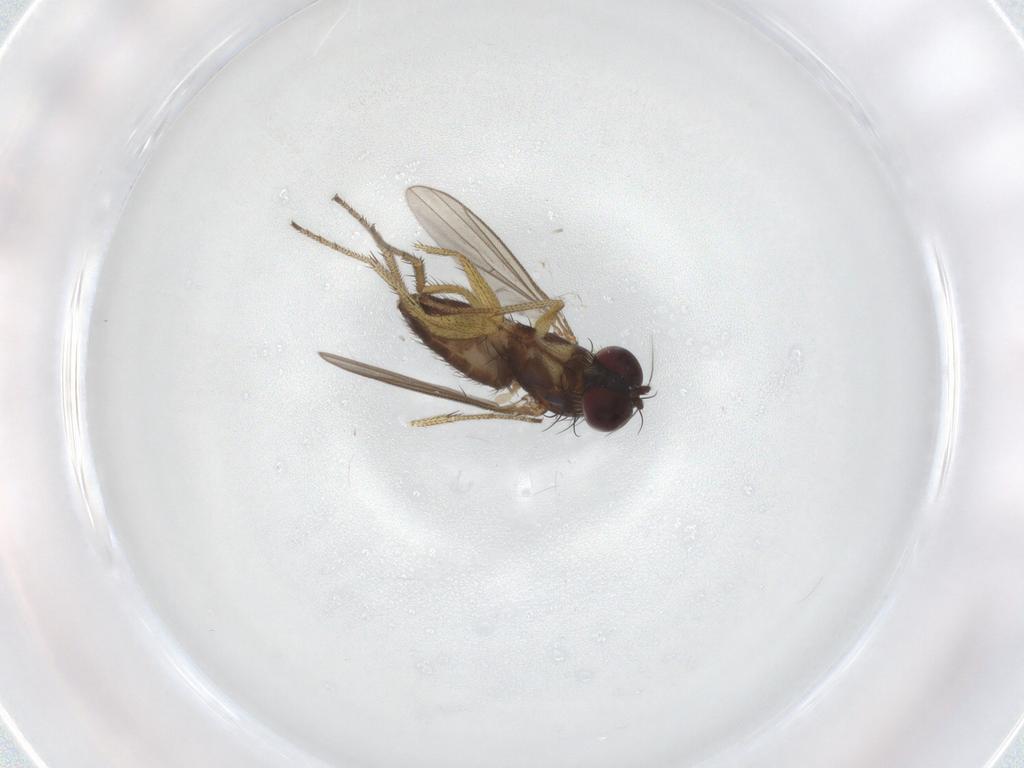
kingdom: Animalia
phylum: Arthropoda
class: Insecta
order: Diptera
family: Dolichopodidae
